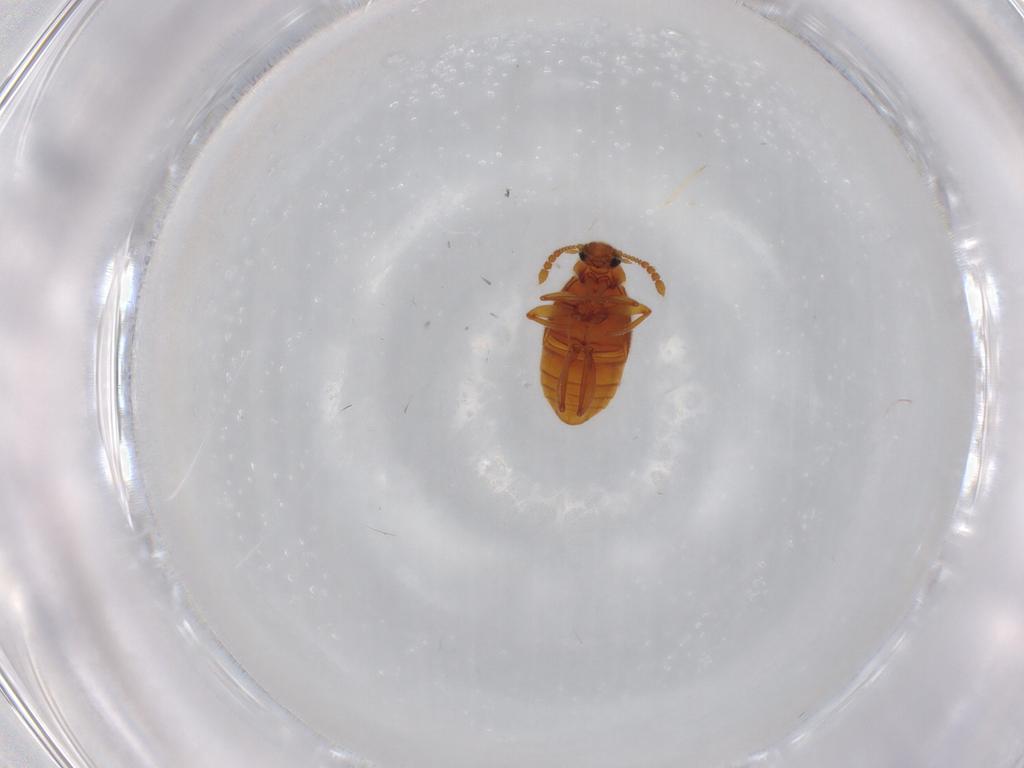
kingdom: Animalia
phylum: Arthropoda
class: Insecta
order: Coleoptera
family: Staphylinidae
